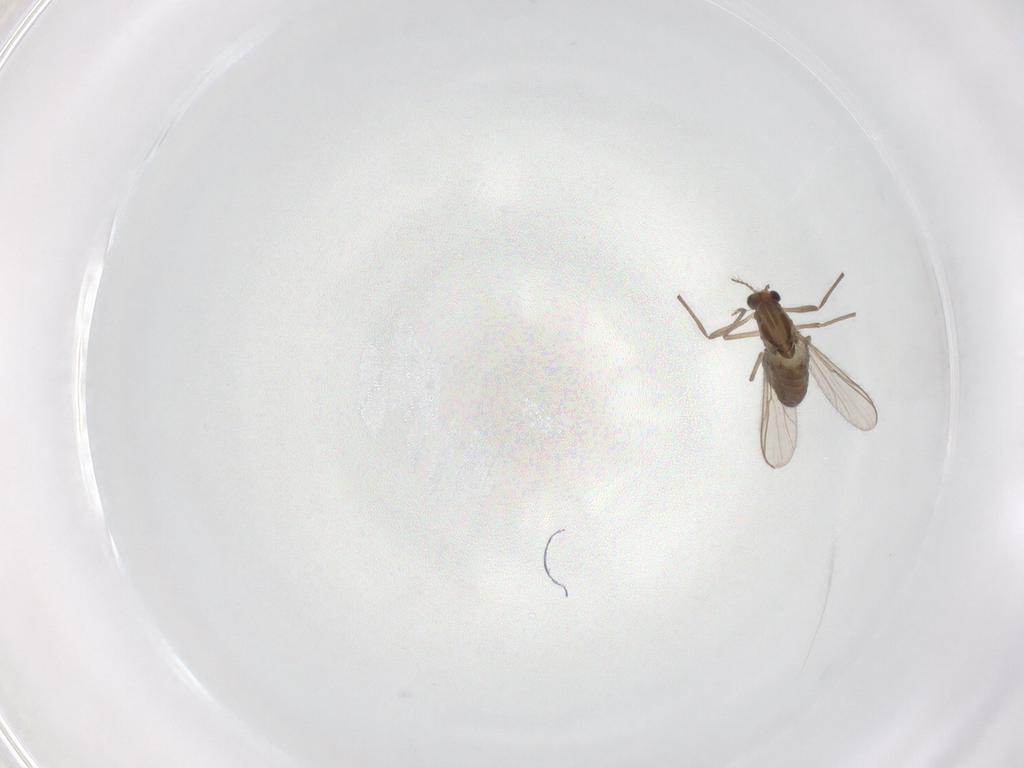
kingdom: Animalia
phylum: Arthropoda
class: Insecta
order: Diptera
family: Chironomidae
